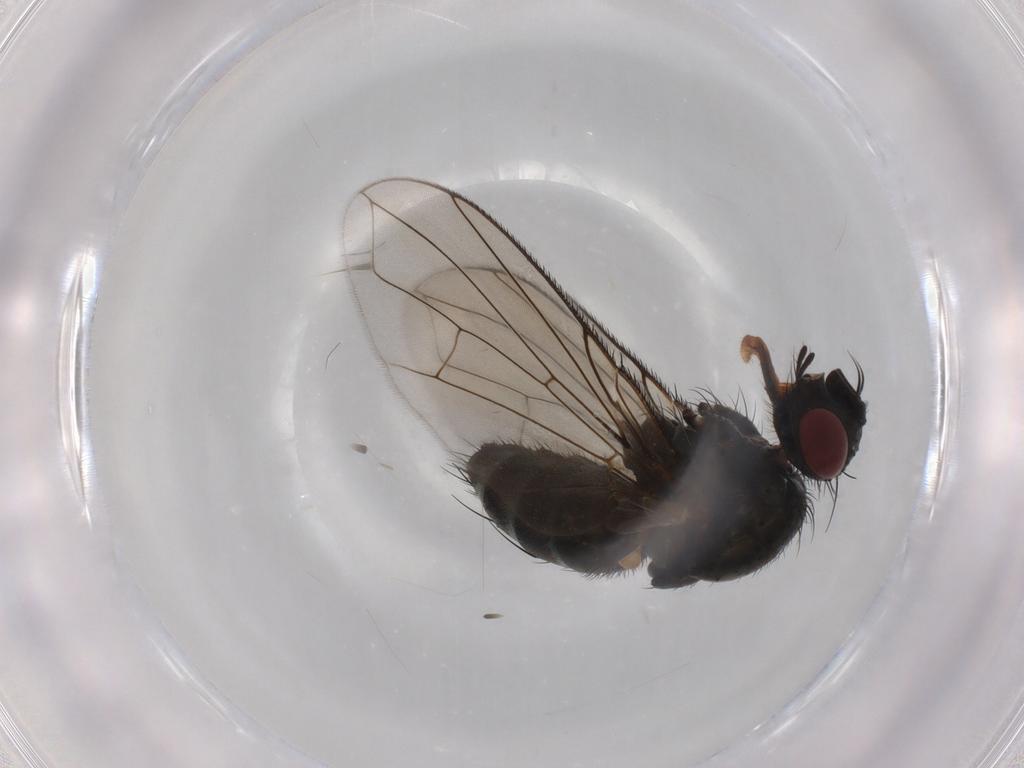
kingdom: Animalia
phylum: Arthropoda
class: Insecta
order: Diptera
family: Tachinidae
